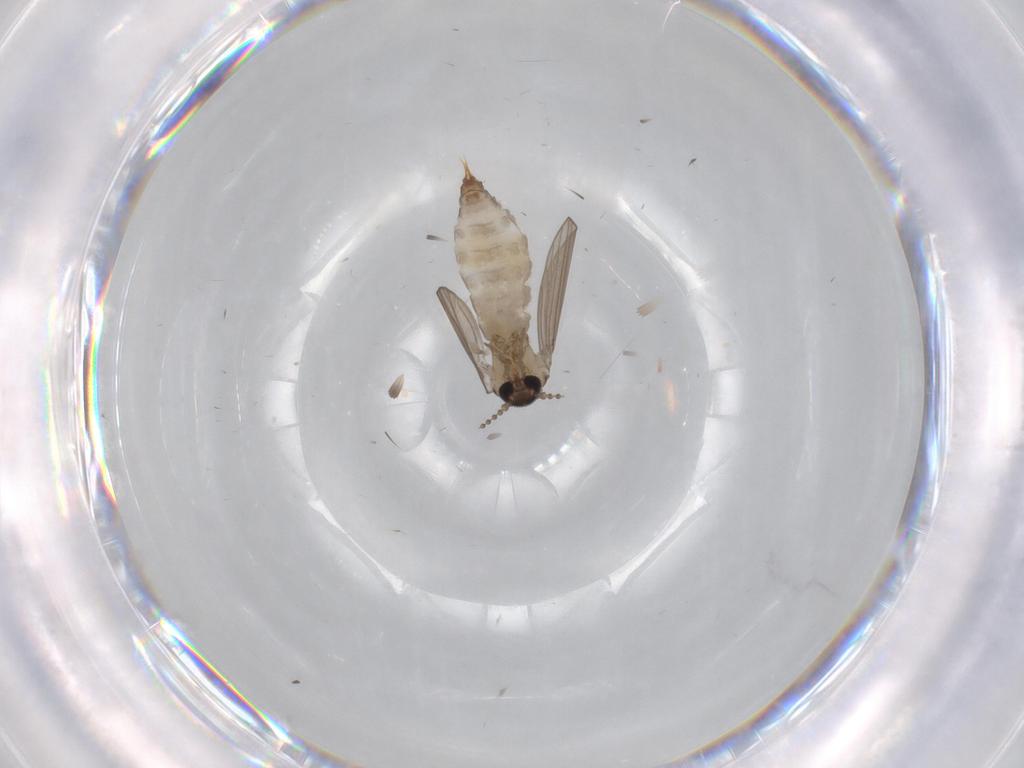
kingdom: Animalia
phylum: Arthropoda
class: Insecta
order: Diptera
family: Psychodidae
